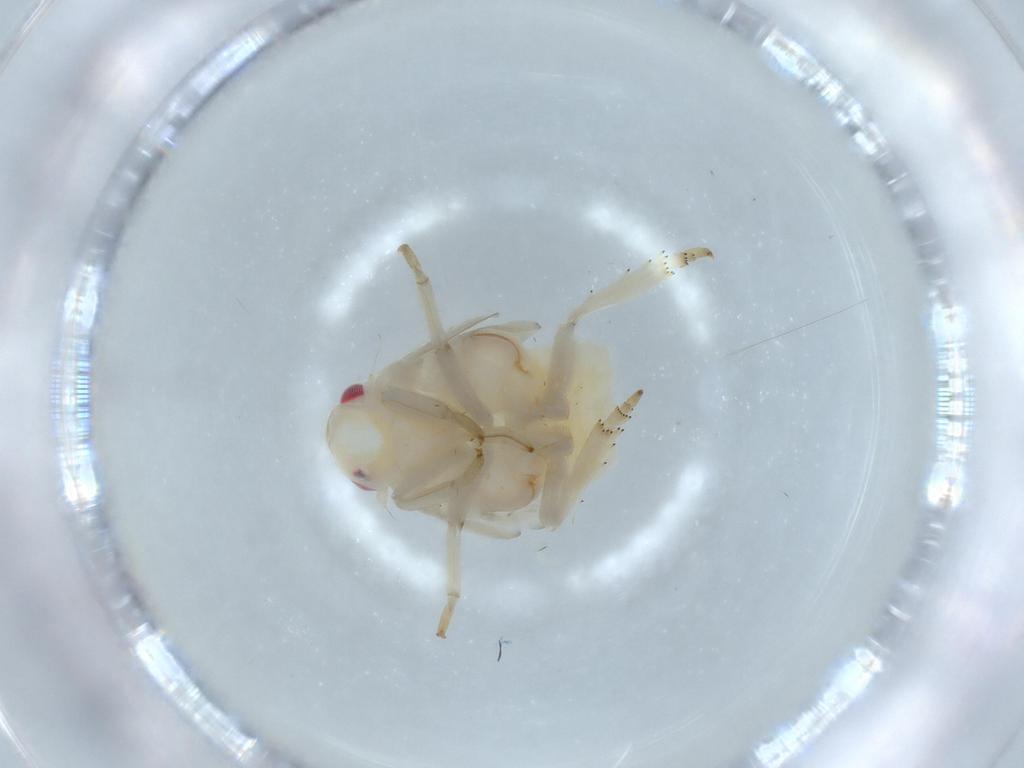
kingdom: Animalia
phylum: Arthropoda
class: Insecta
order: Hemiptera
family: Flatidae
